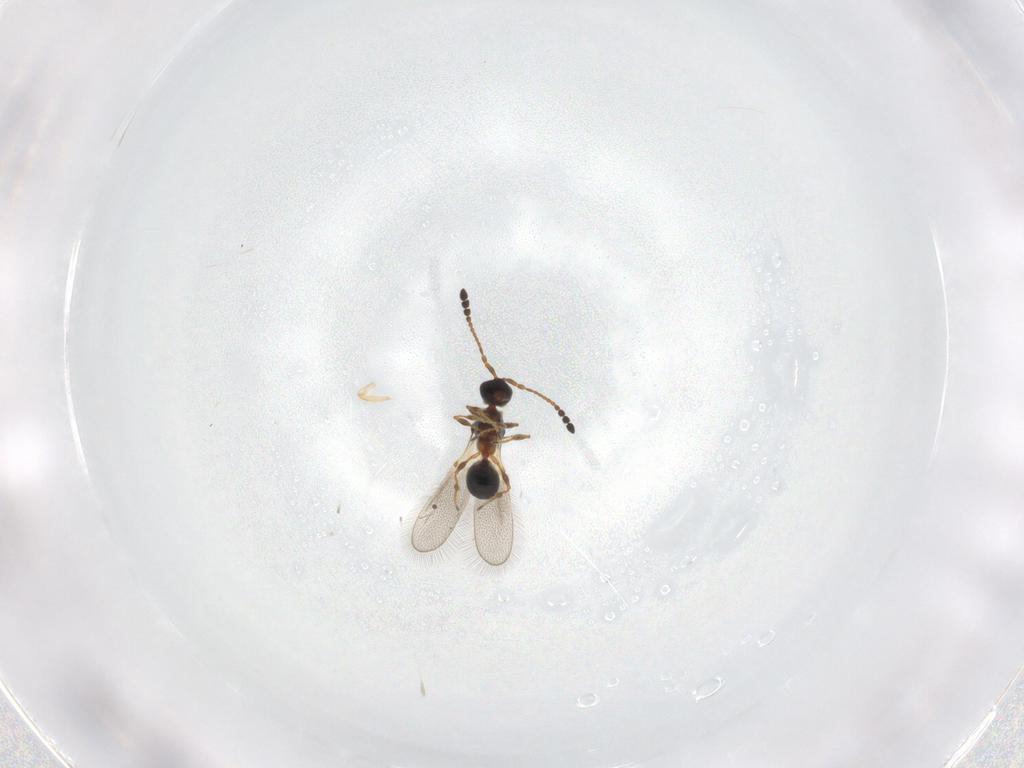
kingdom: Animalia
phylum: Arthropoda
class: Insecta
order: Hymenoptera
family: Diapriidae
